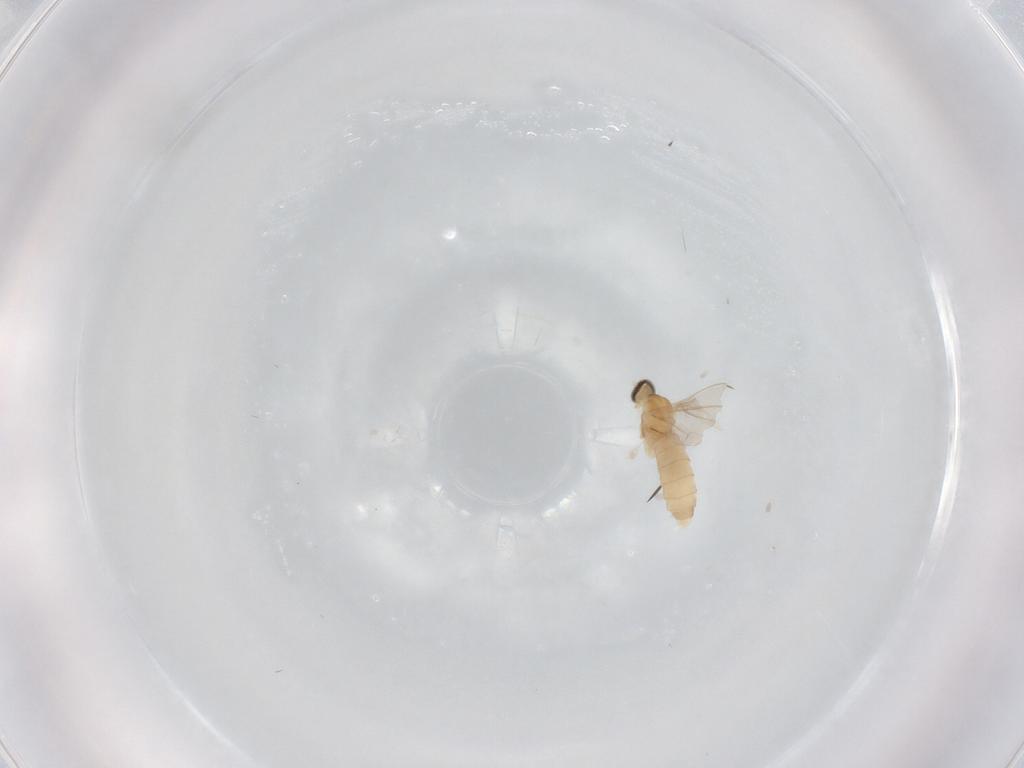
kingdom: Animalia
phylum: Arthropoda
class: Insecta
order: Diptera
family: Cecidomyiidae
